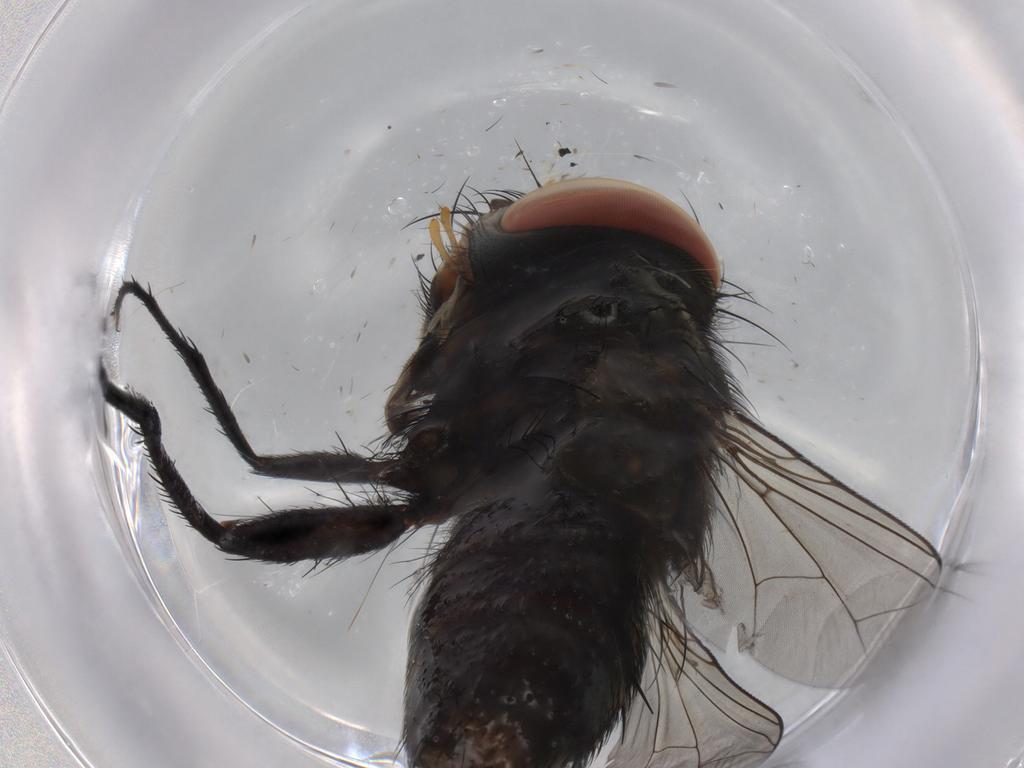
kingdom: Animalia
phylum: Arthropoda
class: Insecta
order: Diptera
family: Sarcophagidae
